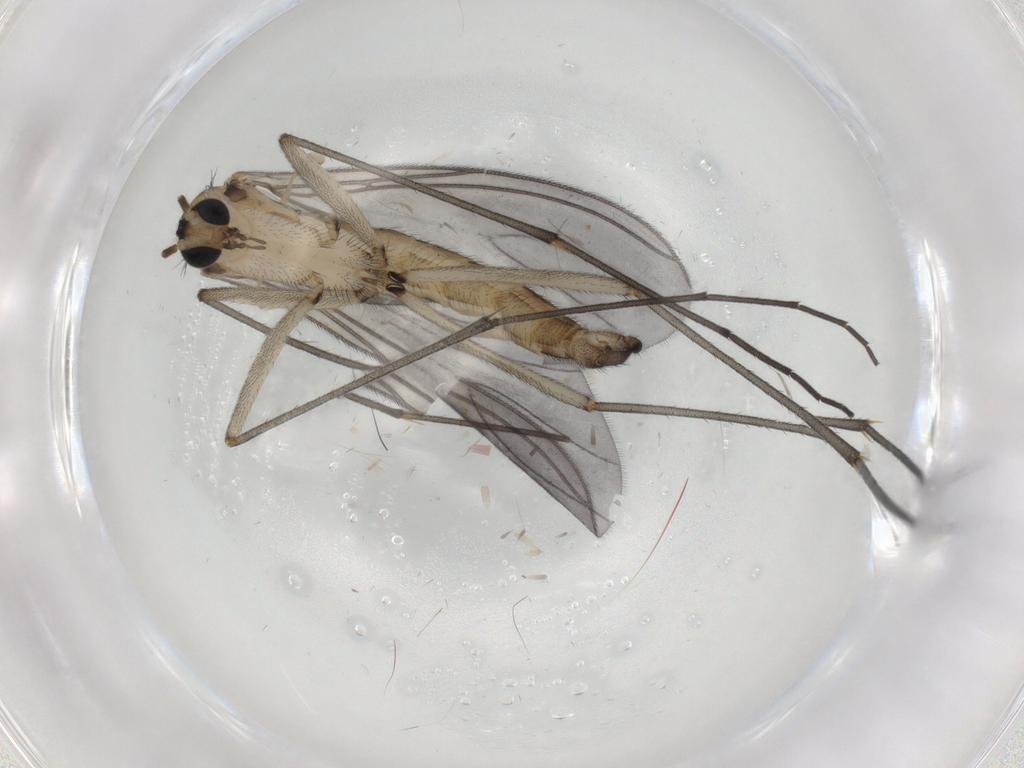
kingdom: Animalia
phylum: Arthropoda
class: Insecta
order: Diptera
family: Sciaridae
